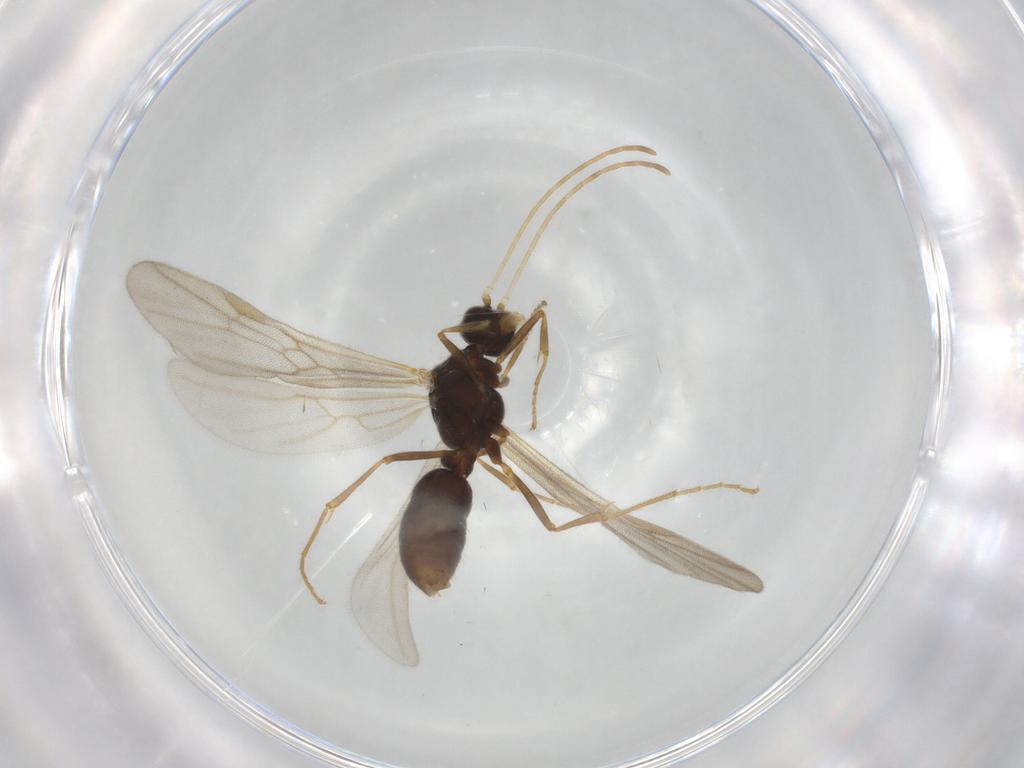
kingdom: Animalia
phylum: Arthropoda
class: Insecta
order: Hymenoptera
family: Formicidae
